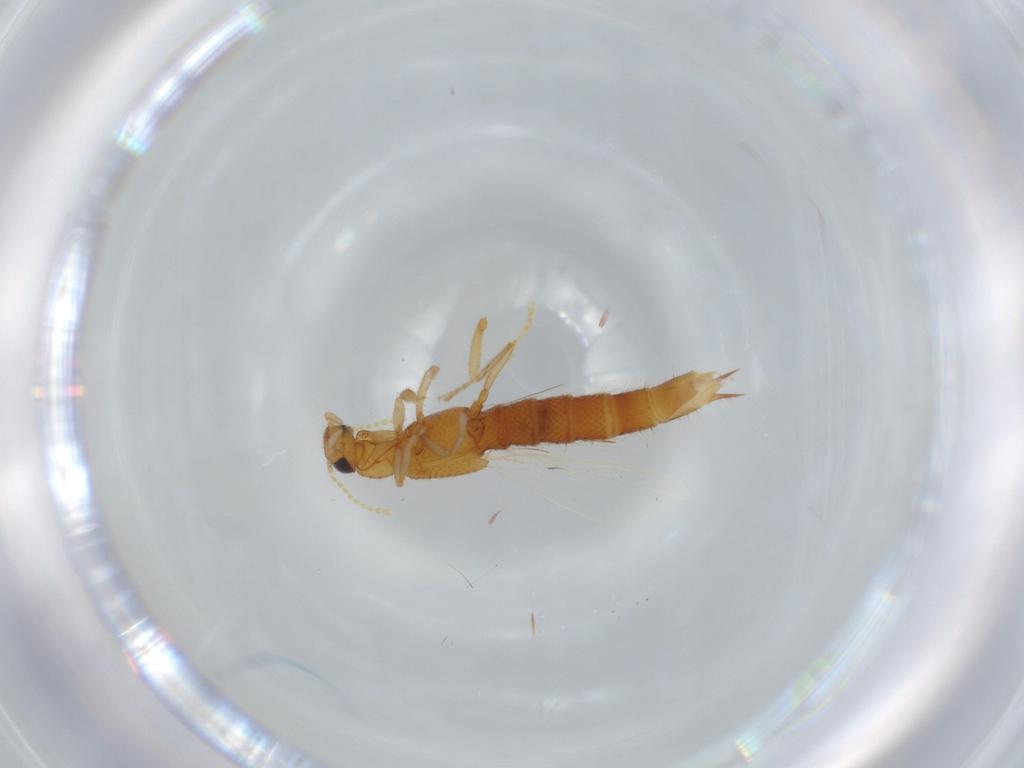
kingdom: Animalia
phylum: Arthropoda
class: Insecta
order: Coleoptera
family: Staphylinidae
